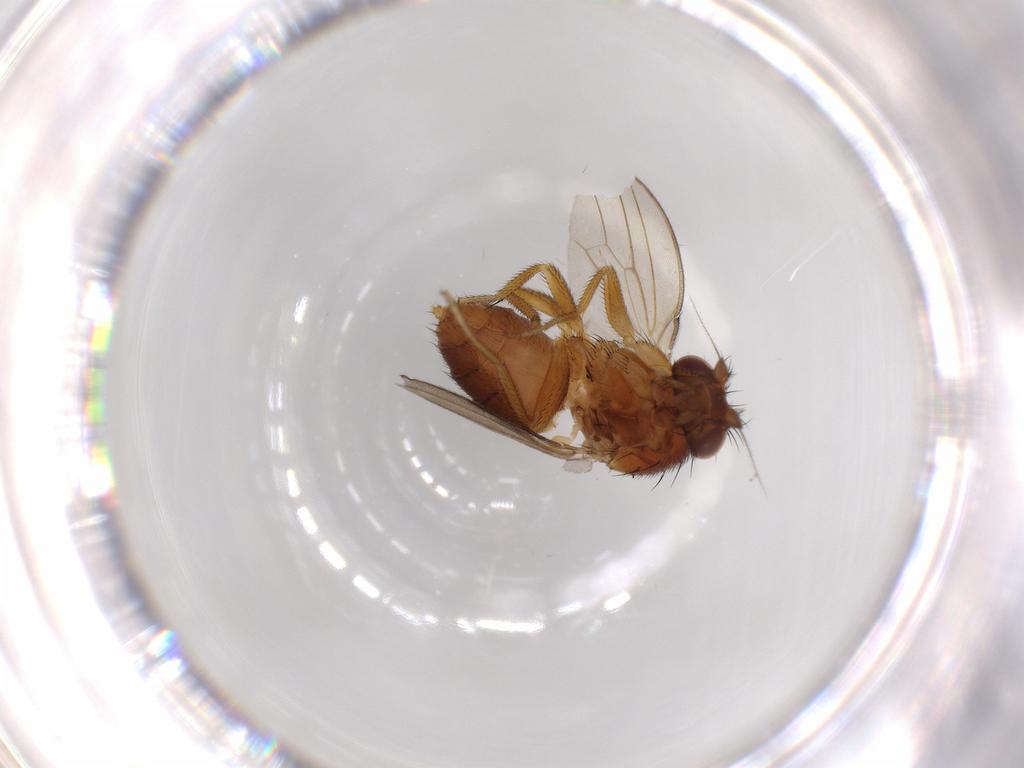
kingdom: Animalia
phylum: Arthropoda
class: Insecta
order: Diptera
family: Milichiidae
